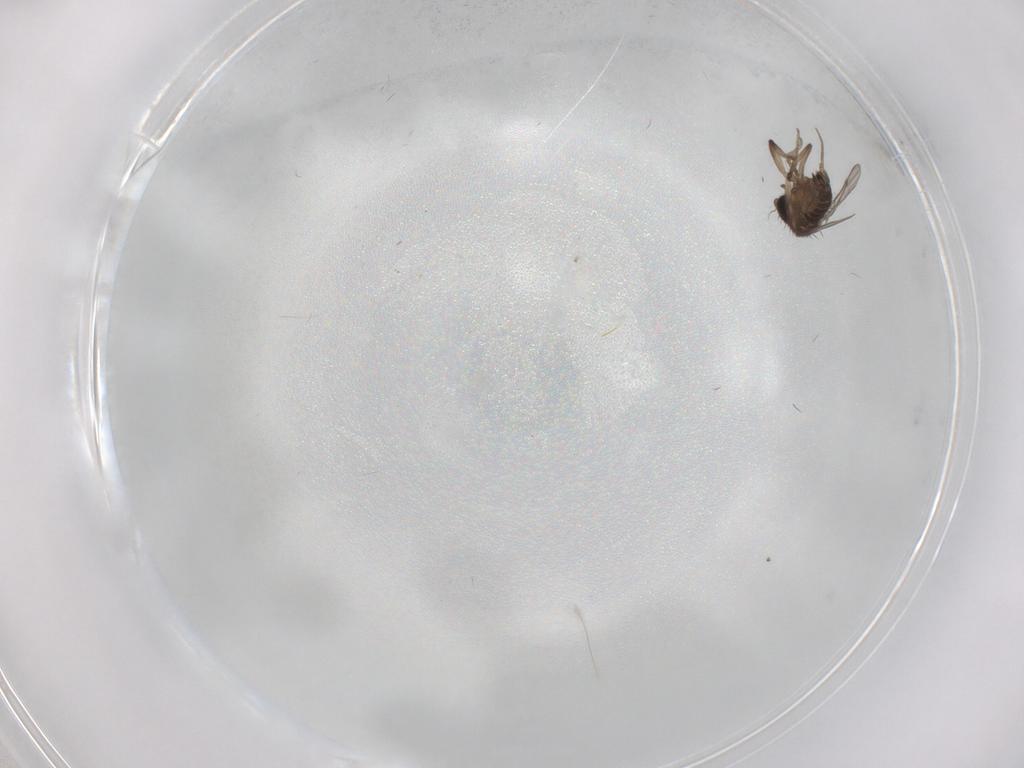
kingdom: Animalia
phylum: Arthropoda
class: Insecta
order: Diptera
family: Phoridae
